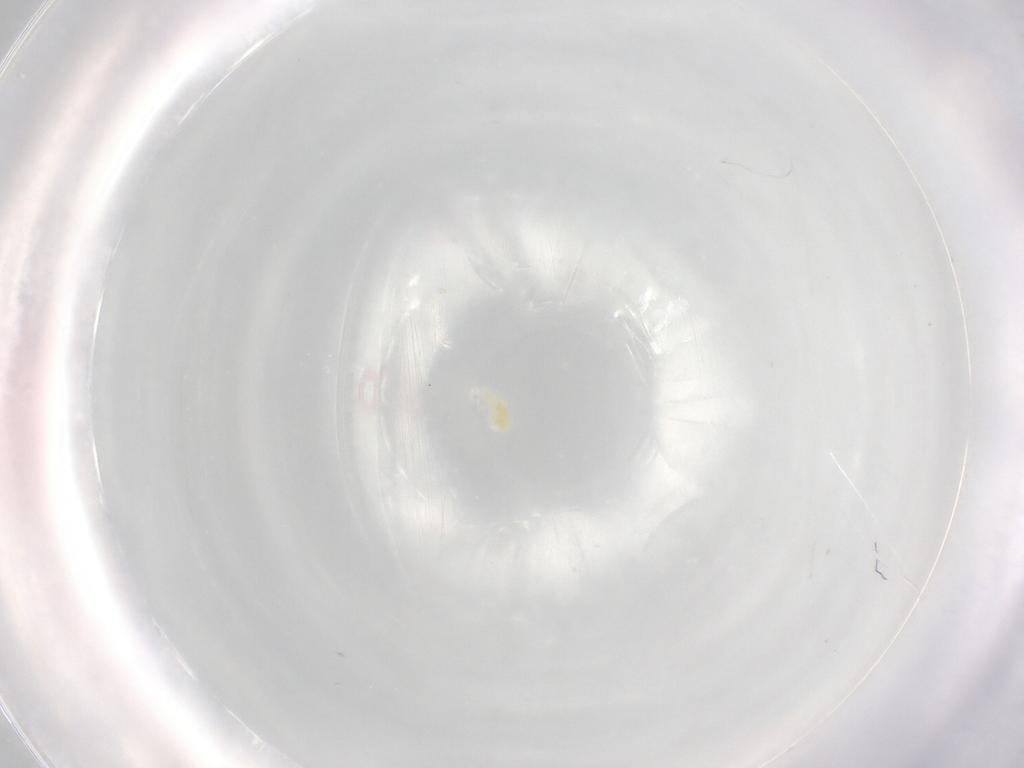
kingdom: Animalia
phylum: Arthropoda
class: Arachnida
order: Trombidiformes
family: Rhagidiidae
